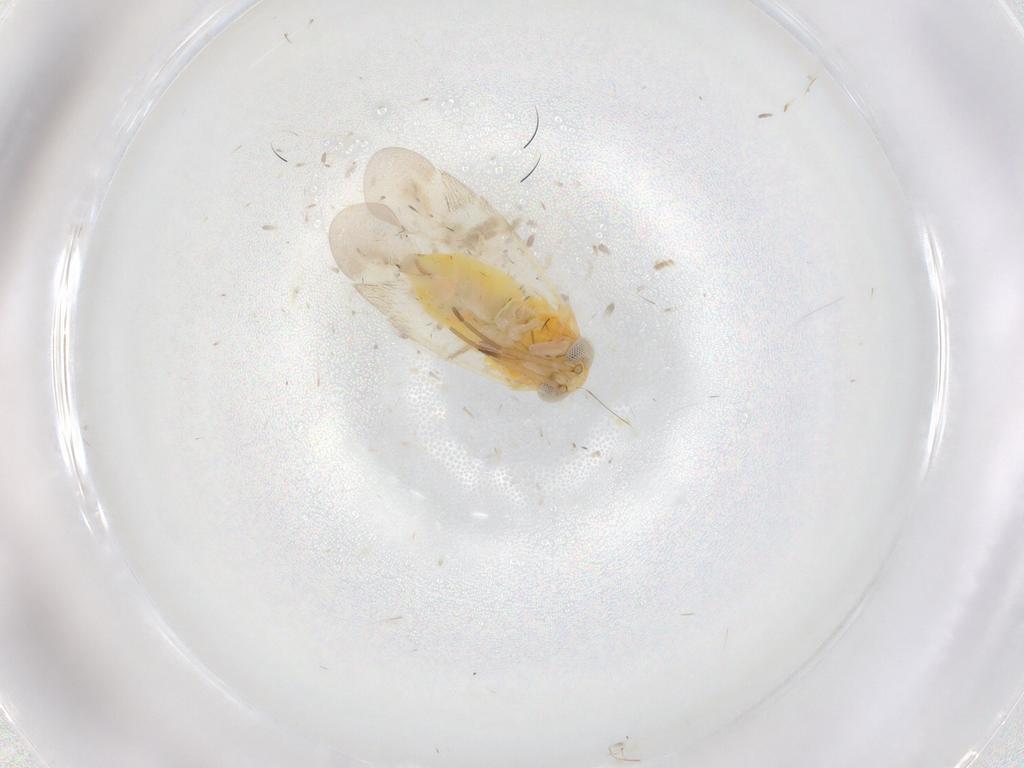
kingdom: Animalia
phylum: Arthropoda
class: Insecta
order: Hemiptera
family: Miridae
